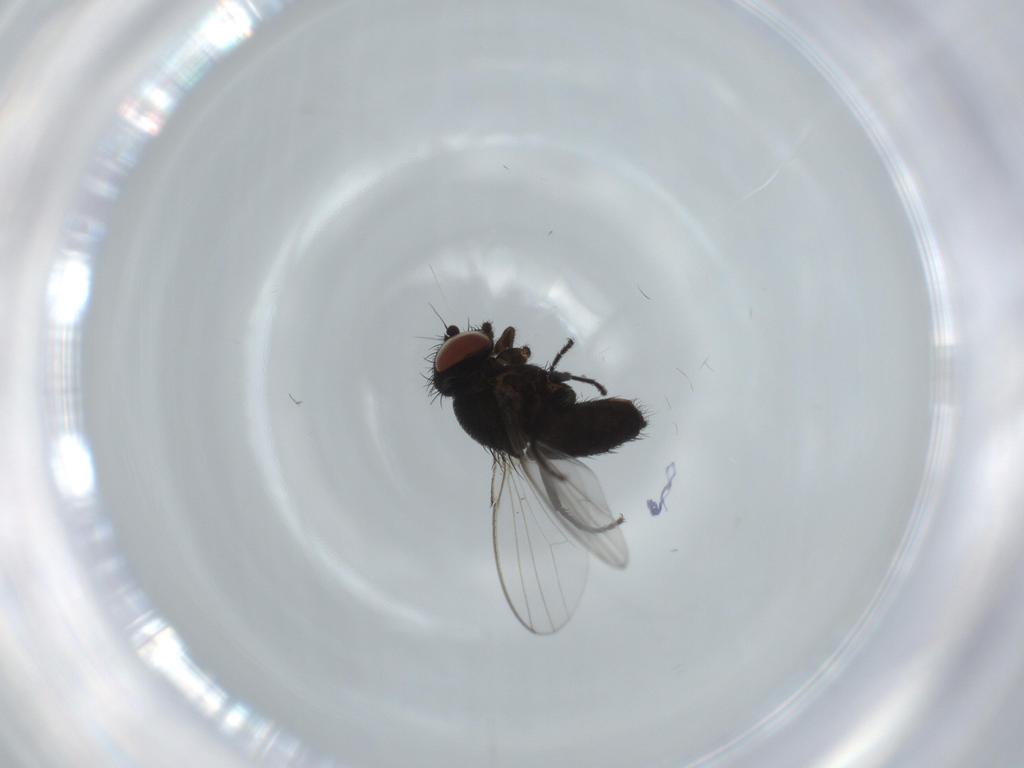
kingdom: Animalia
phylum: Arthropoda
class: Insecta
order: Diptera
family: Milichiidae
